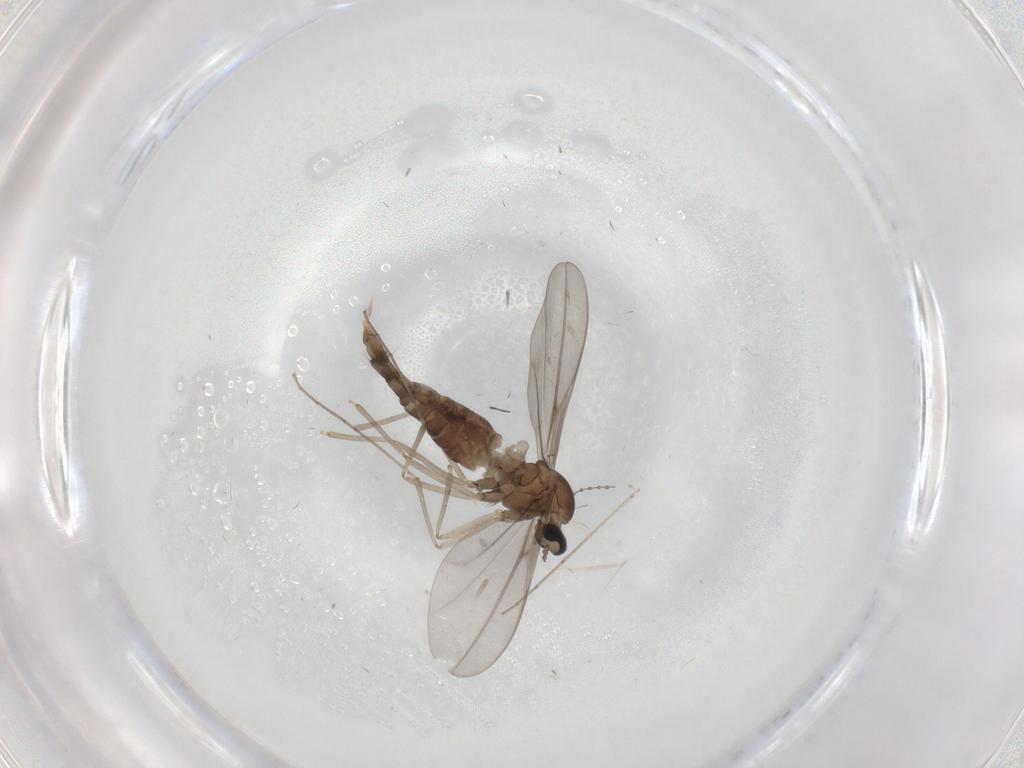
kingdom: Animalia
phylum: Arthropoda
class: Insecta
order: Diptera
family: Cecidomyiidae
